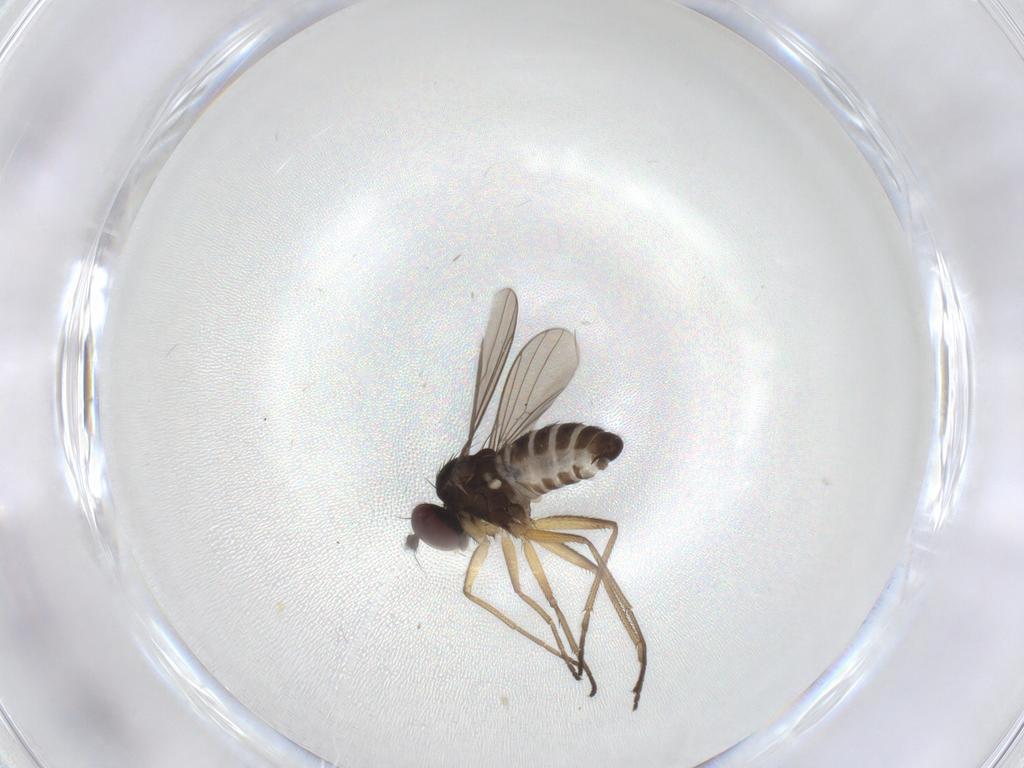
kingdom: Animalia
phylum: Arthropoda
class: Insecta
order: Diptera
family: Dolichopodidae
